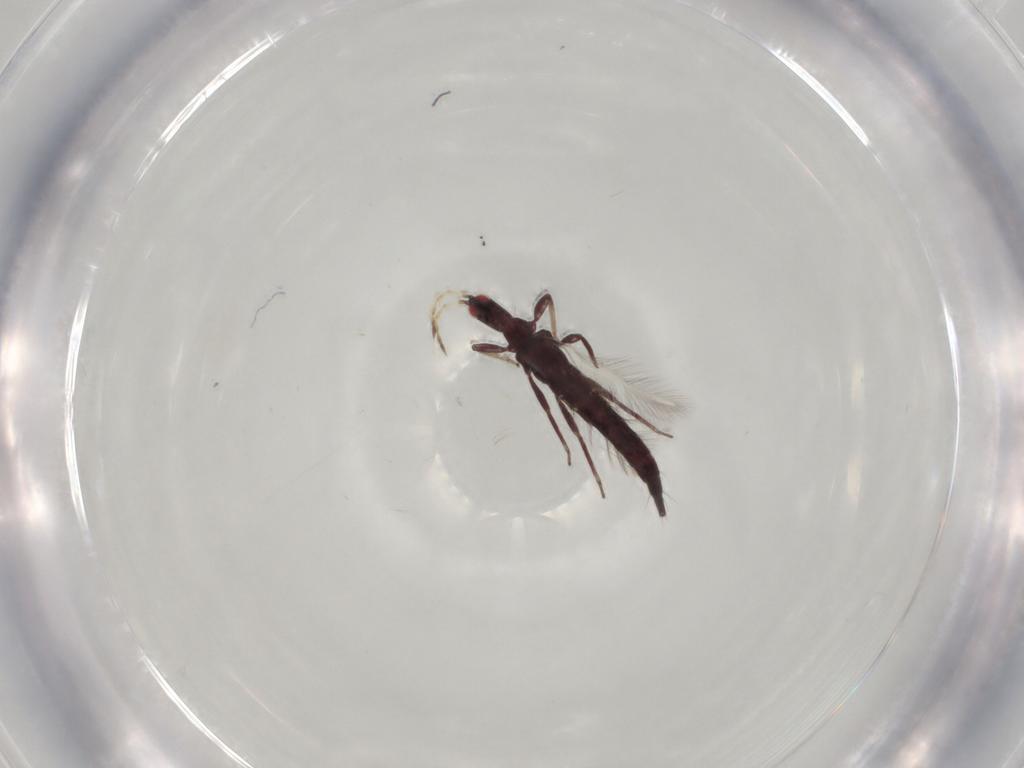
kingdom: Animalia
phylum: Arthropoda
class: Insecta
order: Thysanoptera
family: Phlaeothripidae
